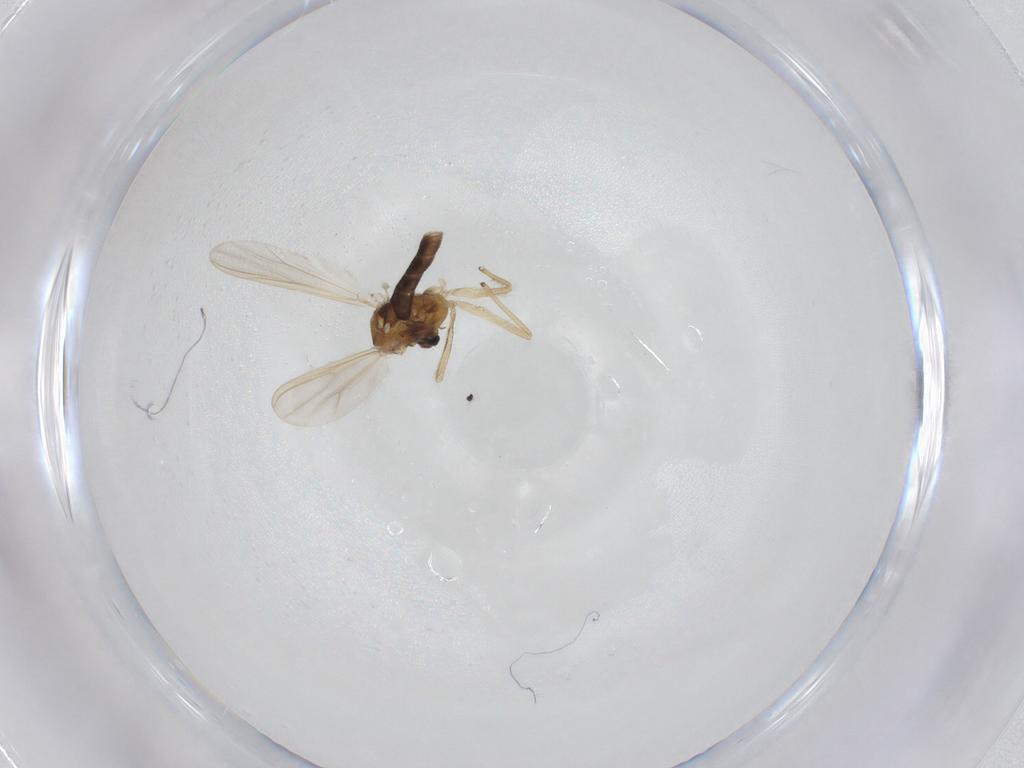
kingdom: Animalia
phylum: Arthropoda
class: Insecta
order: Diptera
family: Chironomidae
